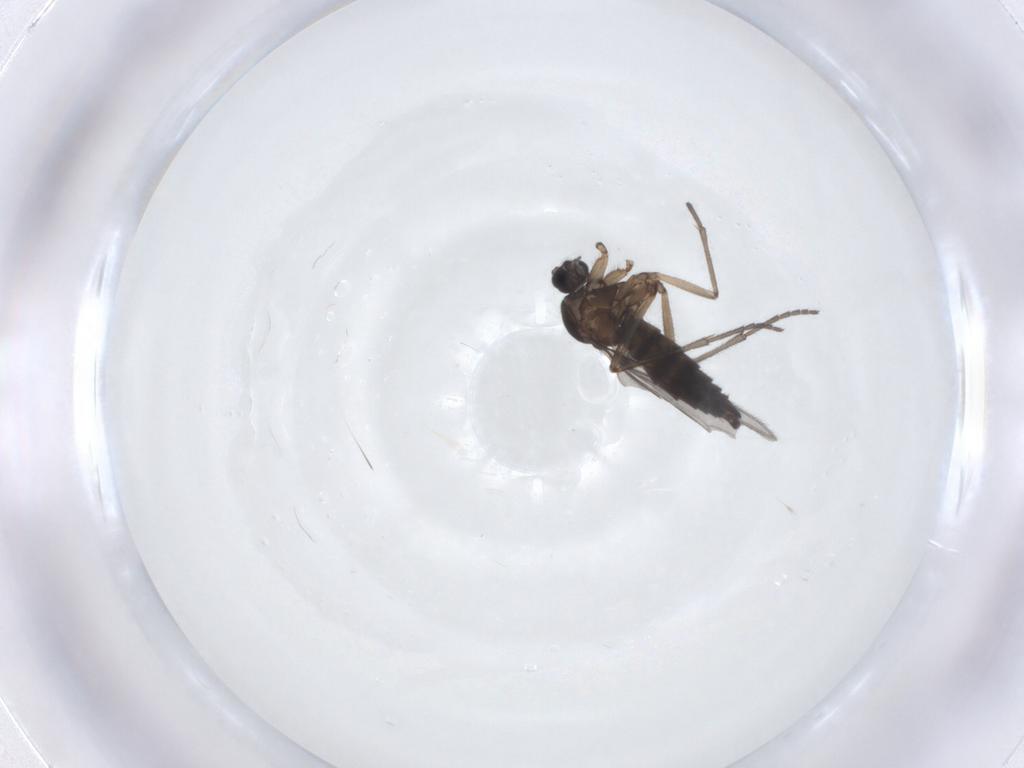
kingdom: Animalia
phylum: Arthropoda
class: Insecta
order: Diptera
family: Sciaridae
